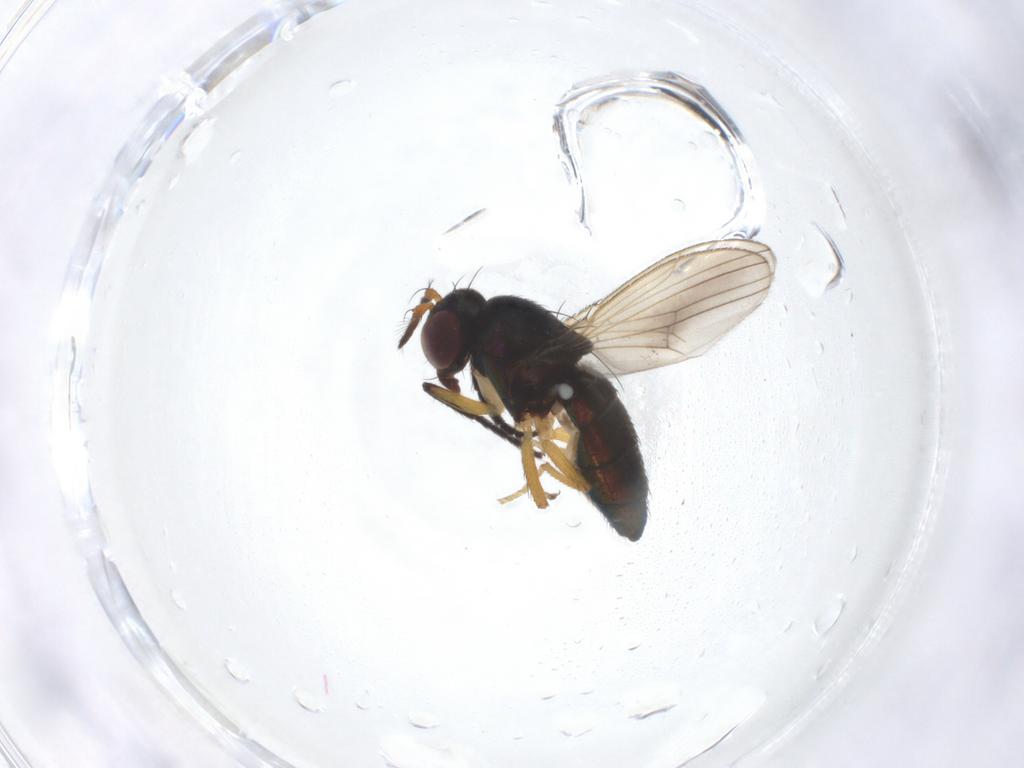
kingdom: Animalia
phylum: Arthropoda
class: Insecta
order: Diptera
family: Ephydridae
